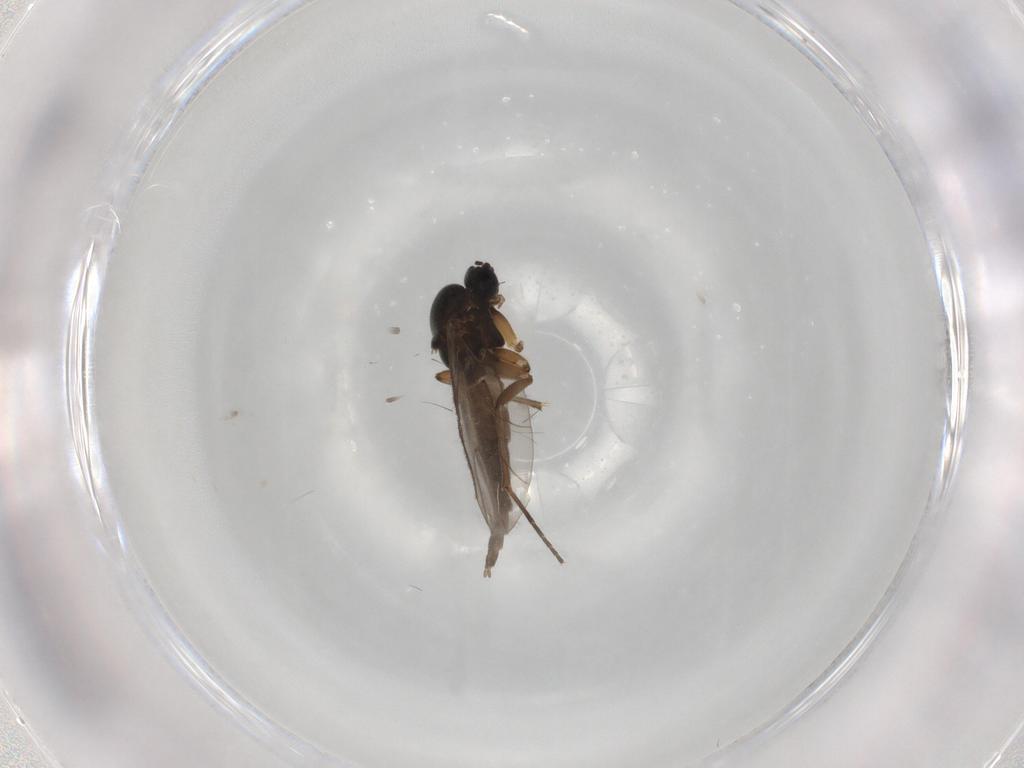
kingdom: Animalia
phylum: Arthropoda
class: Insecta
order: Diptera
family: Sciaridae
